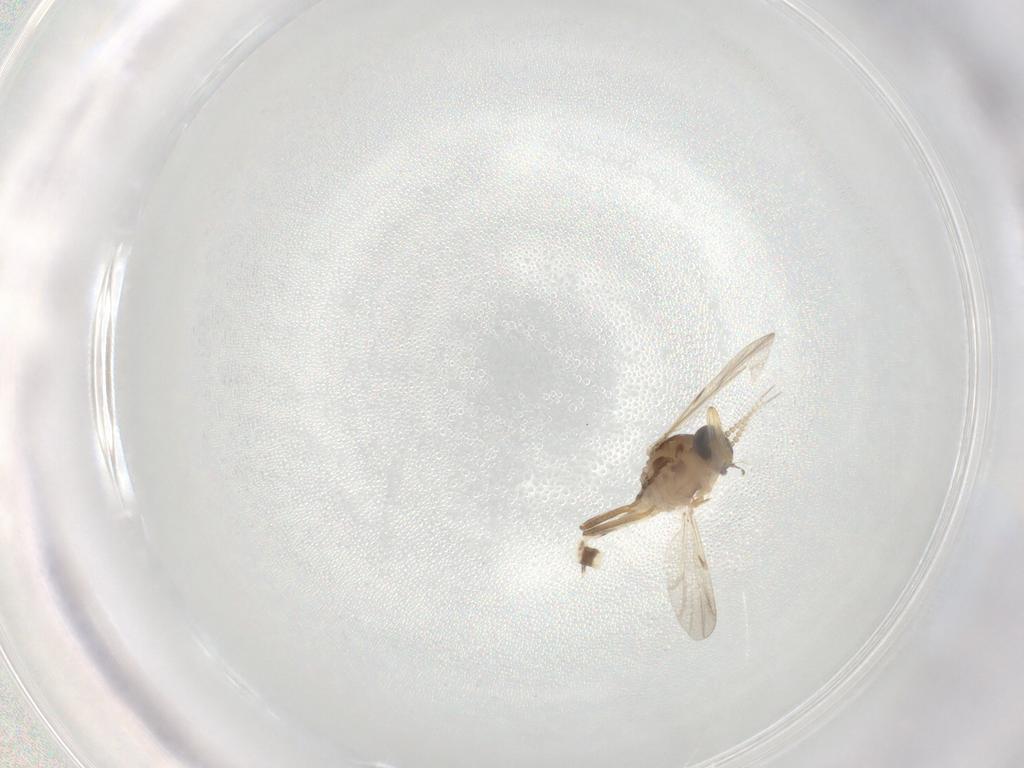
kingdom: Animalia
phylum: Arthropoda
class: Insecta
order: Diptera
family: Ceratopogonidae
